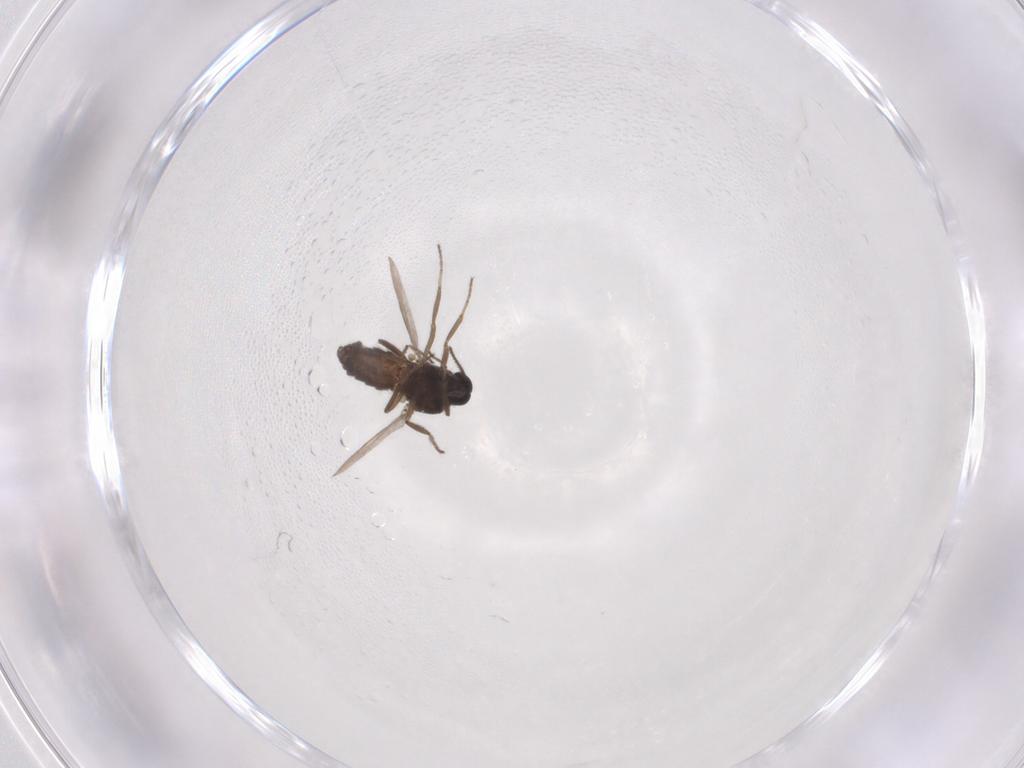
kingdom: Animalia
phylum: Arthropoda
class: Insecta
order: Diptera
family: Ceratopogonidae
